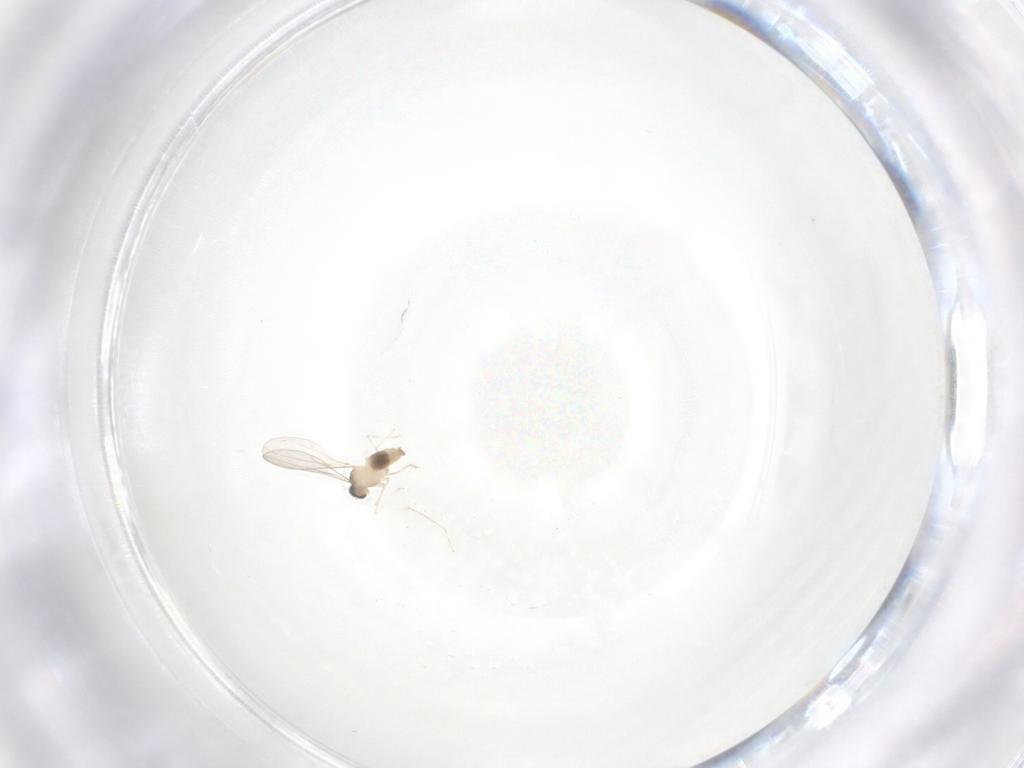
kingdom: Animalia
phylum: Arthropoda
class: Insecta
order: Diptera
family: Cecidomyiidae
